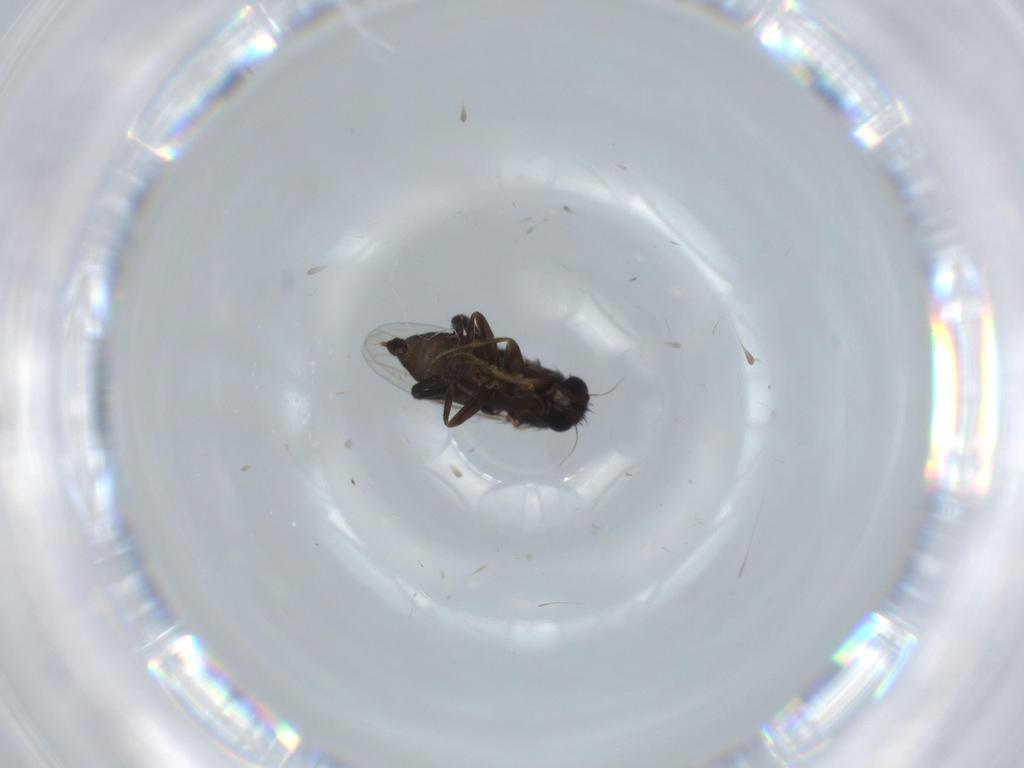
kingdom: Animalia
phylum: Arthropoda
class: Insecta
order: Diptera
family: Phoridae
